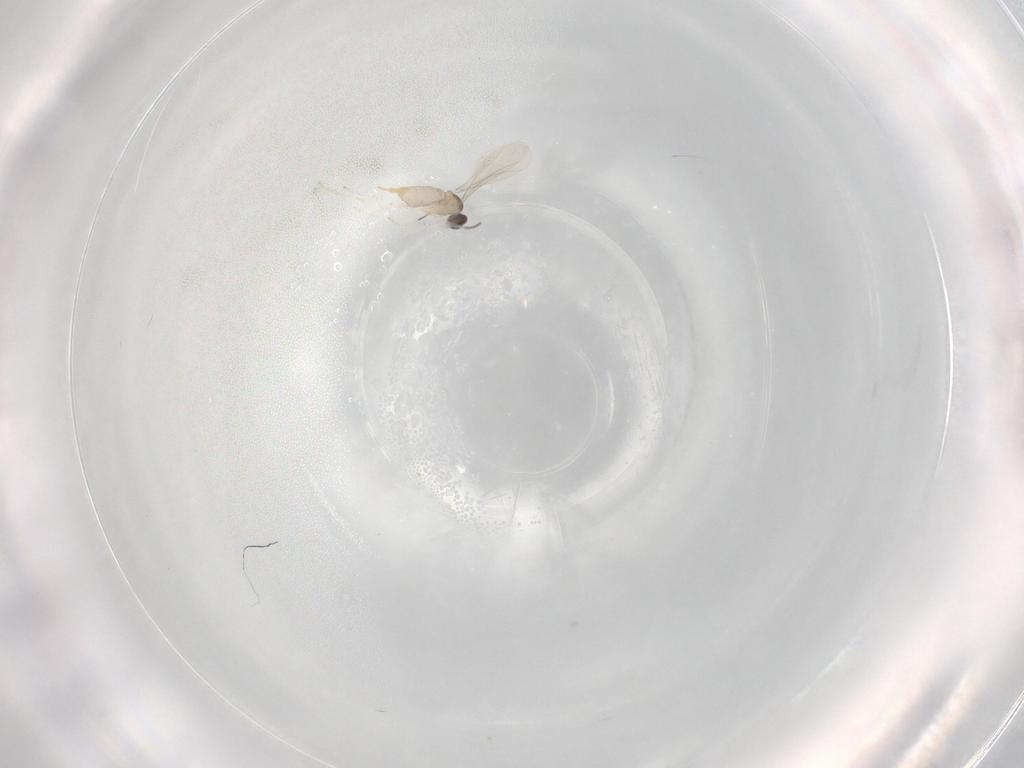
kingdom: Animalia
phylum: Arthropoda
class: Insecta
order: Diptera
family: Cecidomyiidae
